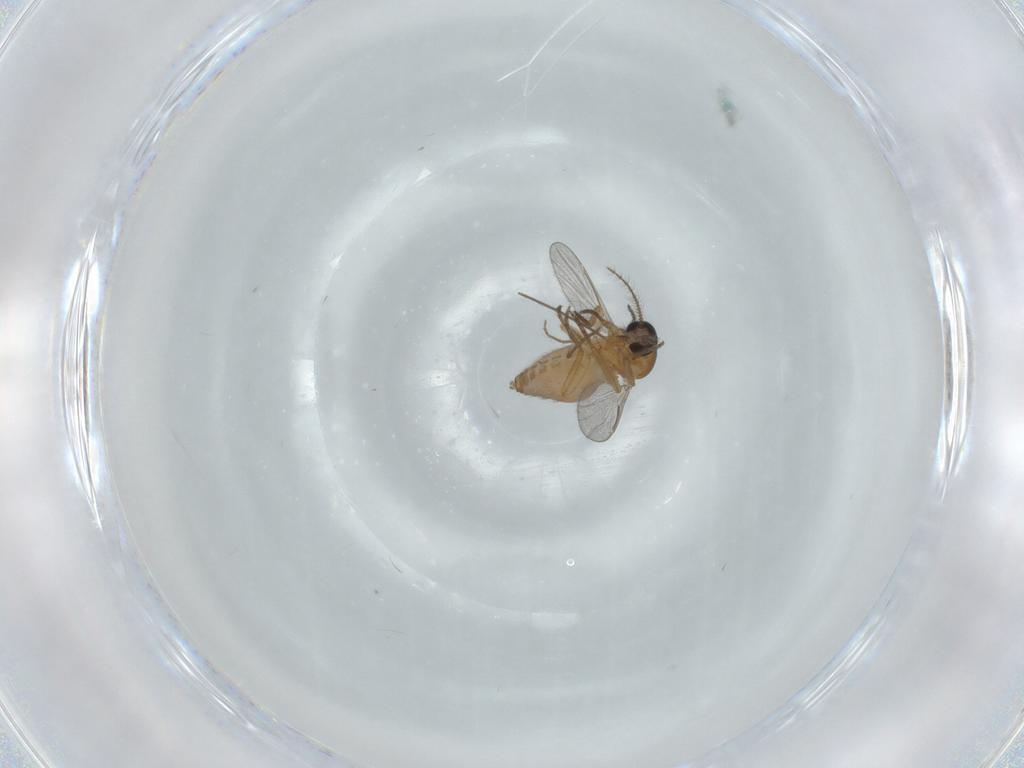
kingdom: Animalia
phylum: Arthropoda
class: Insecta
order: Diptera
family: Ceratopogonidae
